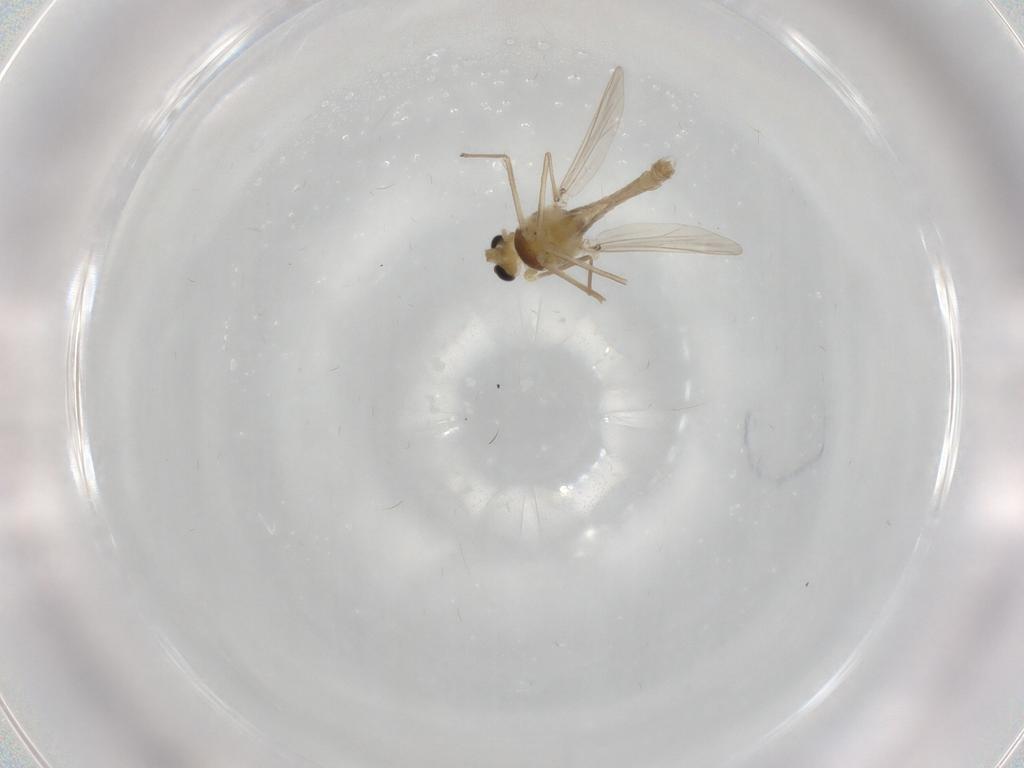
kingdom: Animalia
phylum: Arthropoda
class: Insecta
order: Diptera
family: Chironomidae
